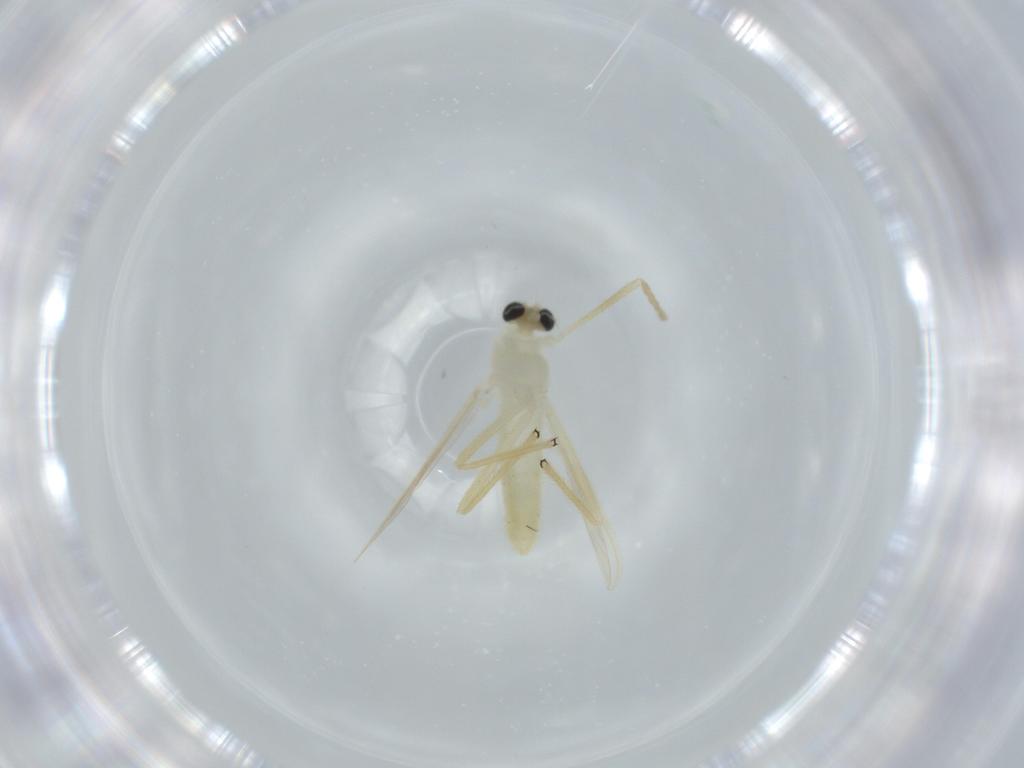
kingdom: Animalia
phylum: Arthropoda
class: Insecta
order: Diptera
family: Chironomidae
